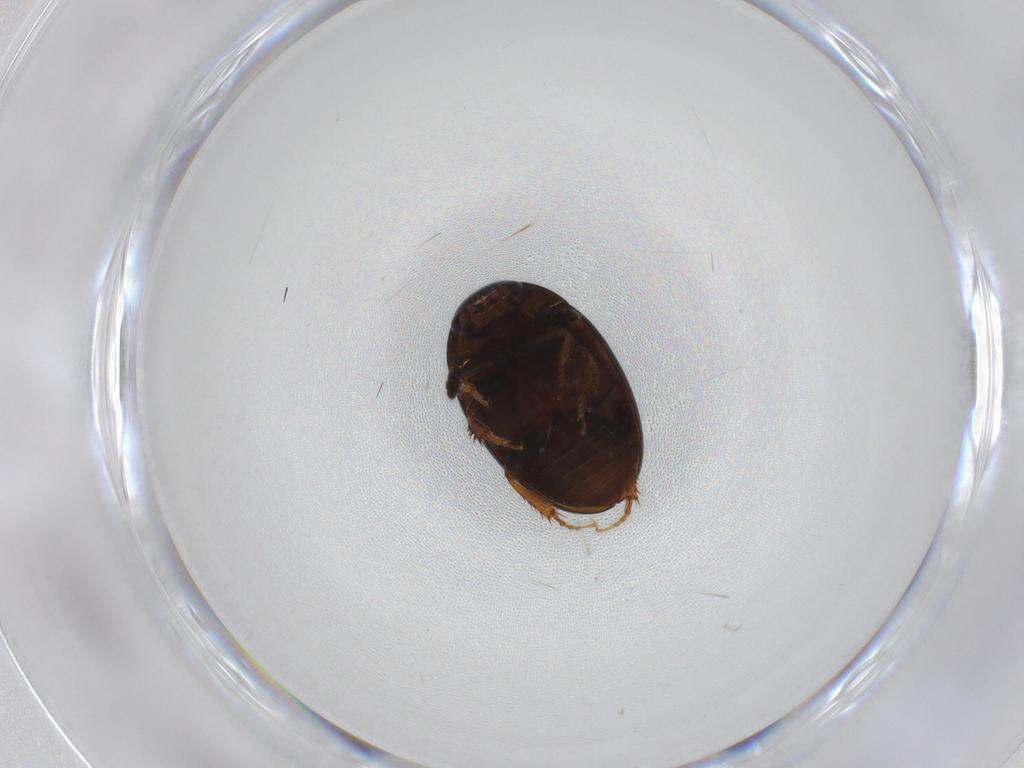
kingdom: Animalia
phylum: Arthropoda
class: Insecta
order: Coleoptera
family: Leiodidae
